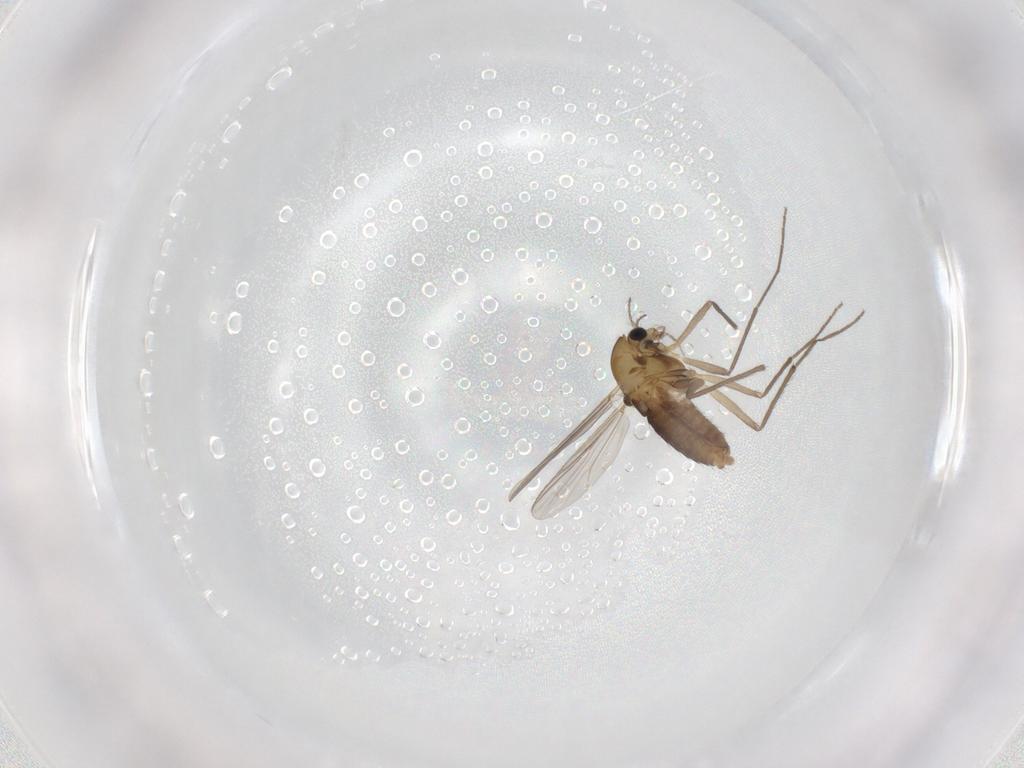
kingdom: Animalia
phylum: Arthropoda
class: Insecta
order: Diptera
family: Chironomidae
